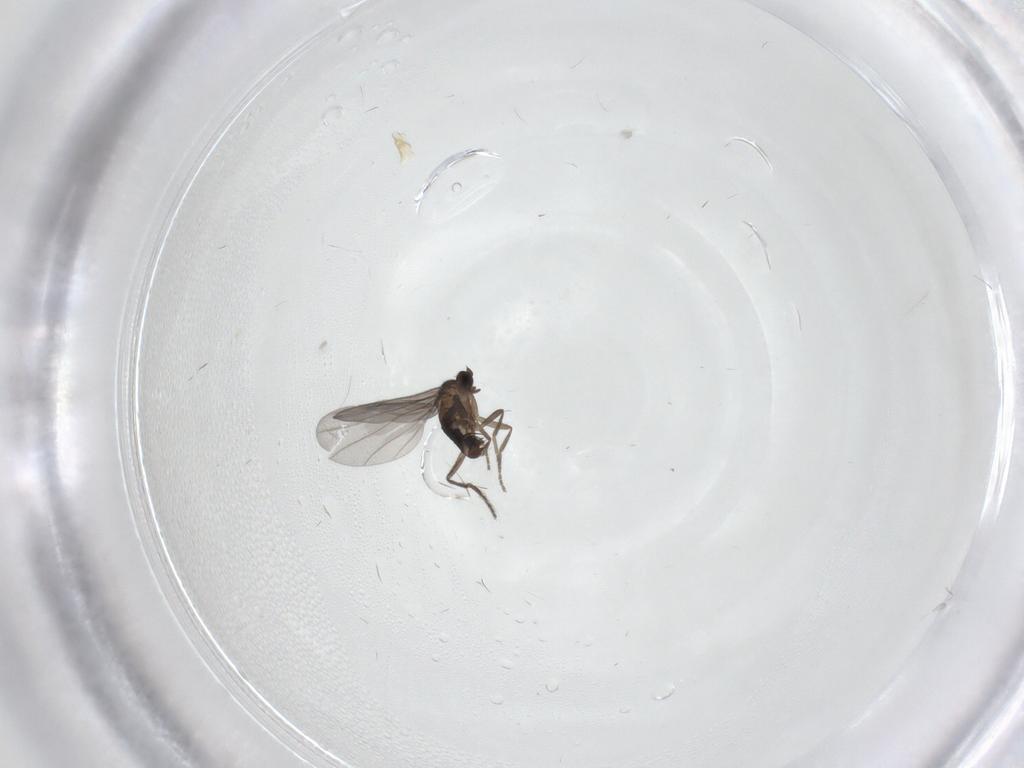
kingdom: Animalia
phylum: Arthropoda
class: Insecta
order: Diptera
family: Phoridae
